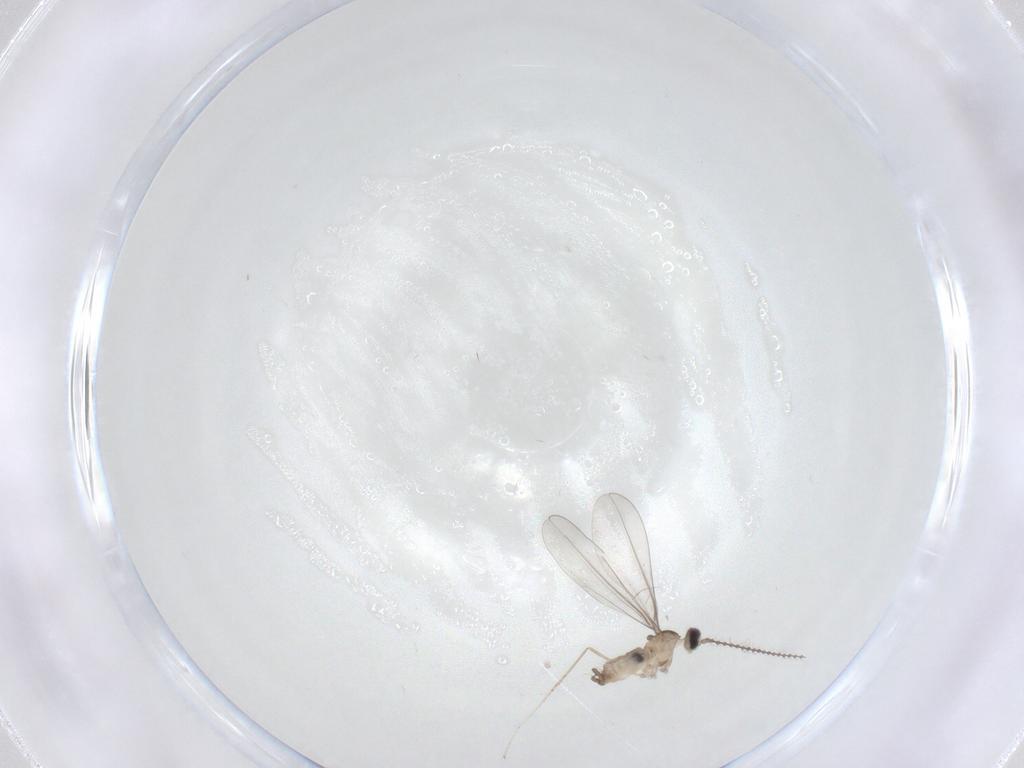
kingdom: Animalia
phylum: Arthropoda
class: Insecta
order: Diptera
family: Cecidomyiidae
